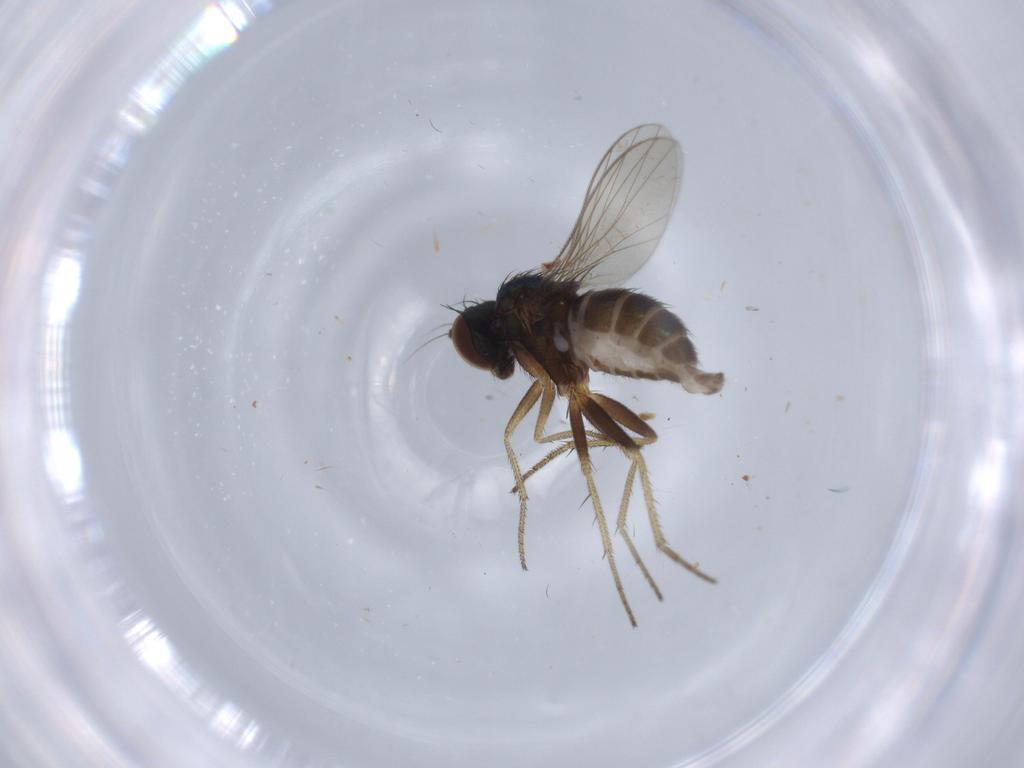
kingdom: Animalia
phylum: Arthropoda
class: Insecta
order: Diptera
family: Dolichopodidae
